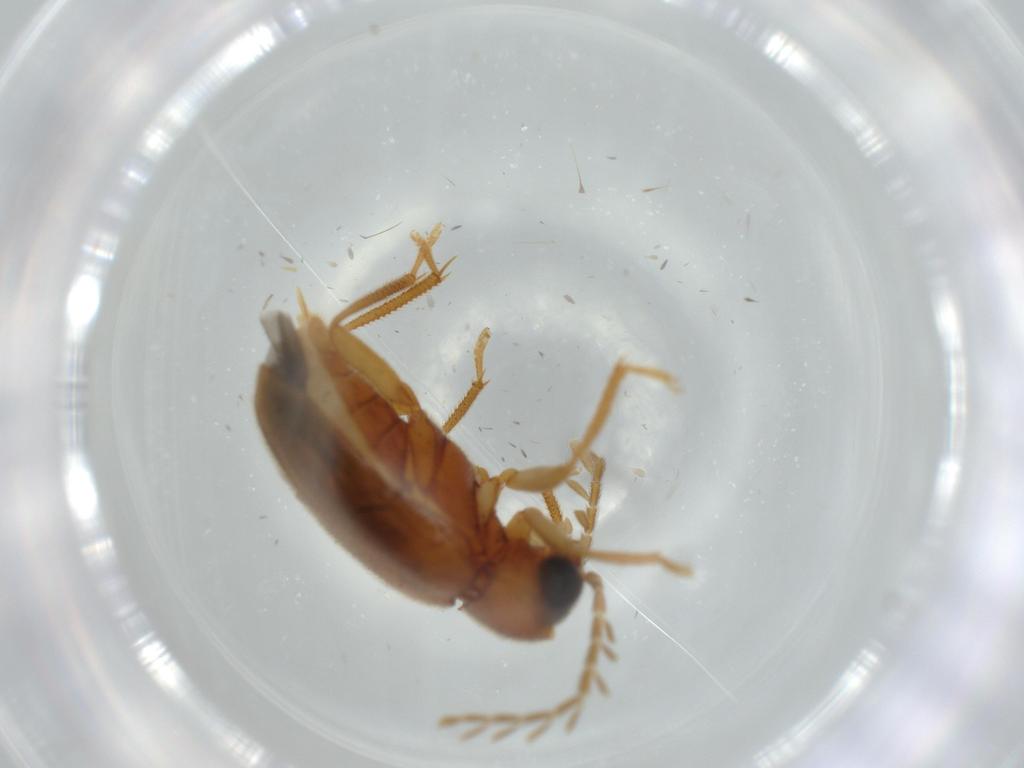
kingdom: Animalia
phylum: Arthropoda
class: Insecta
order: Coleoptera
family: Ptilodactylidae
